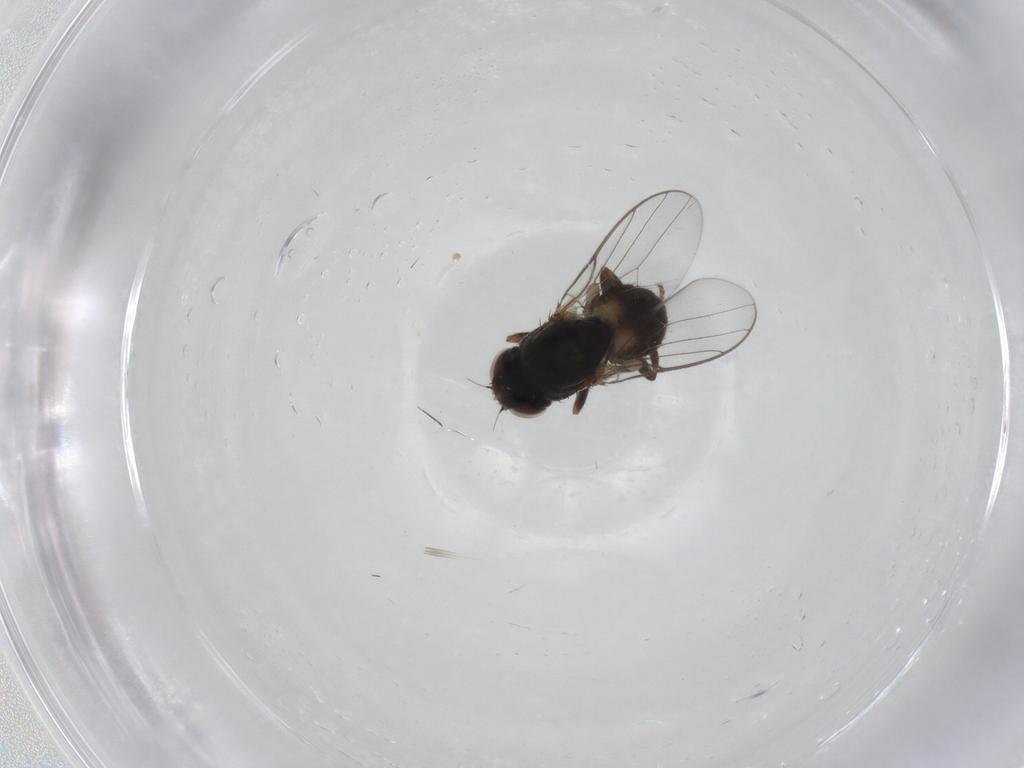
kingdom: Animalia
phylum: Arthropoda
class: Insecta
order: Diptera
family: Chloropidae
